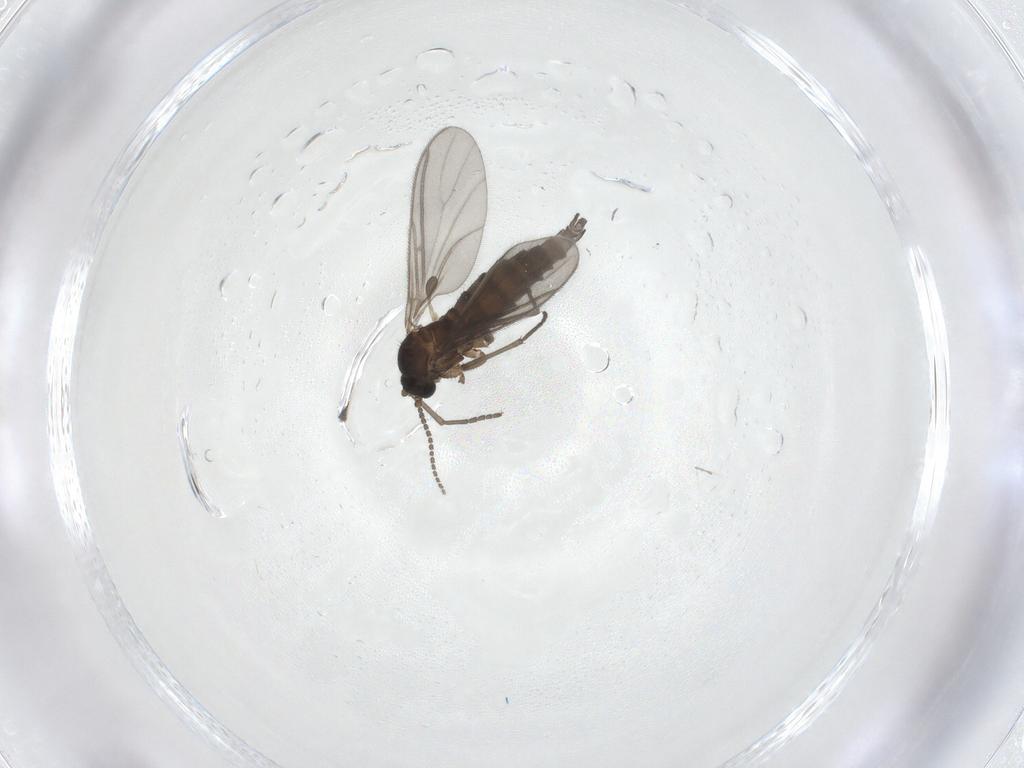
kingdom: Animalia
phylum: Arthropoda
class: Insecta
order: Diptera
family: Sciaridae
